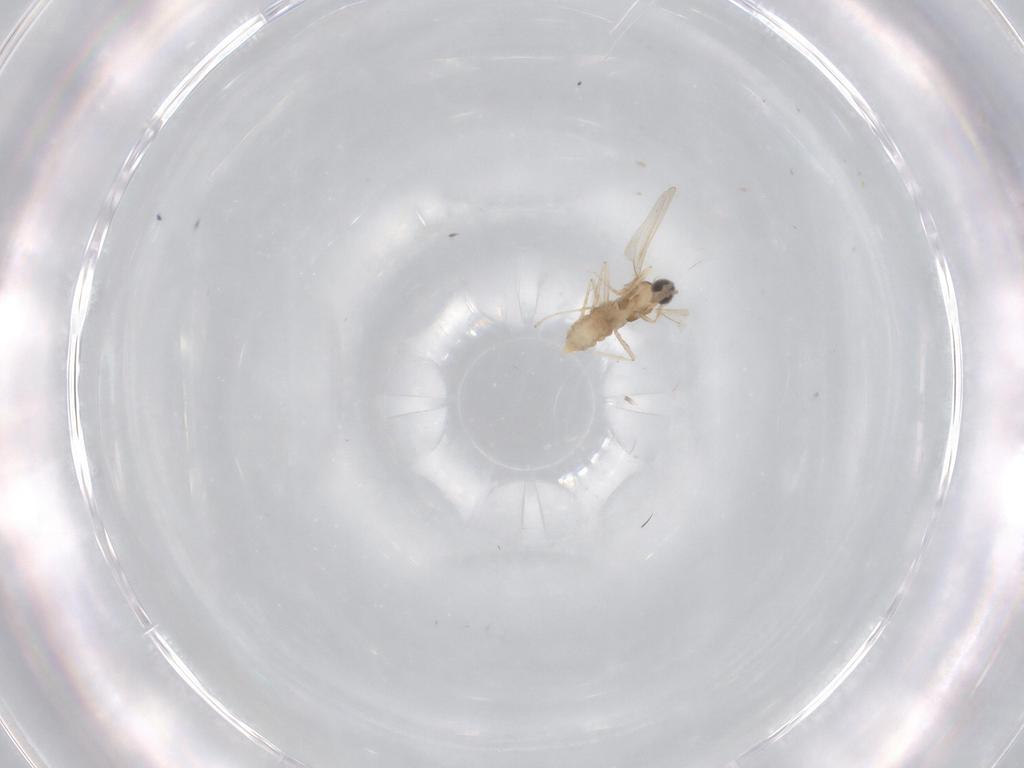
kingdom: Animalia
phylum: Arthropoda
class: Insecta
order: Diptera
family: Cecidomyiidae
